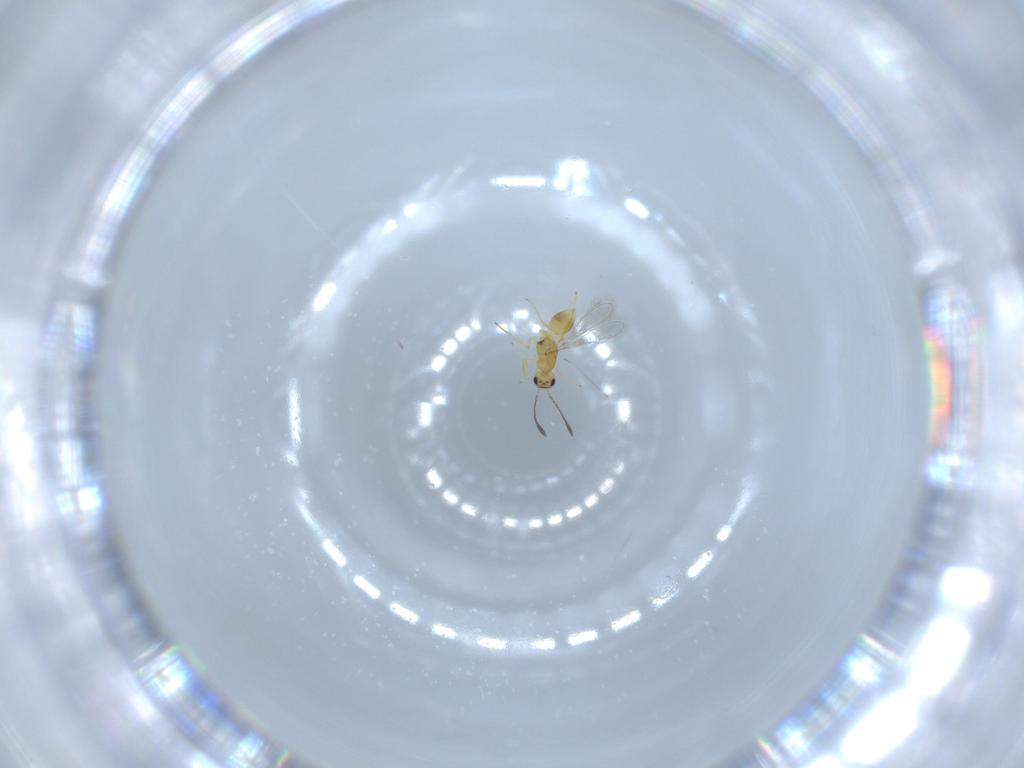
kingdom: Animalia
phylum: Arthropoda
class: Insecta
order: Hymenoptera
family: Mymaridae
